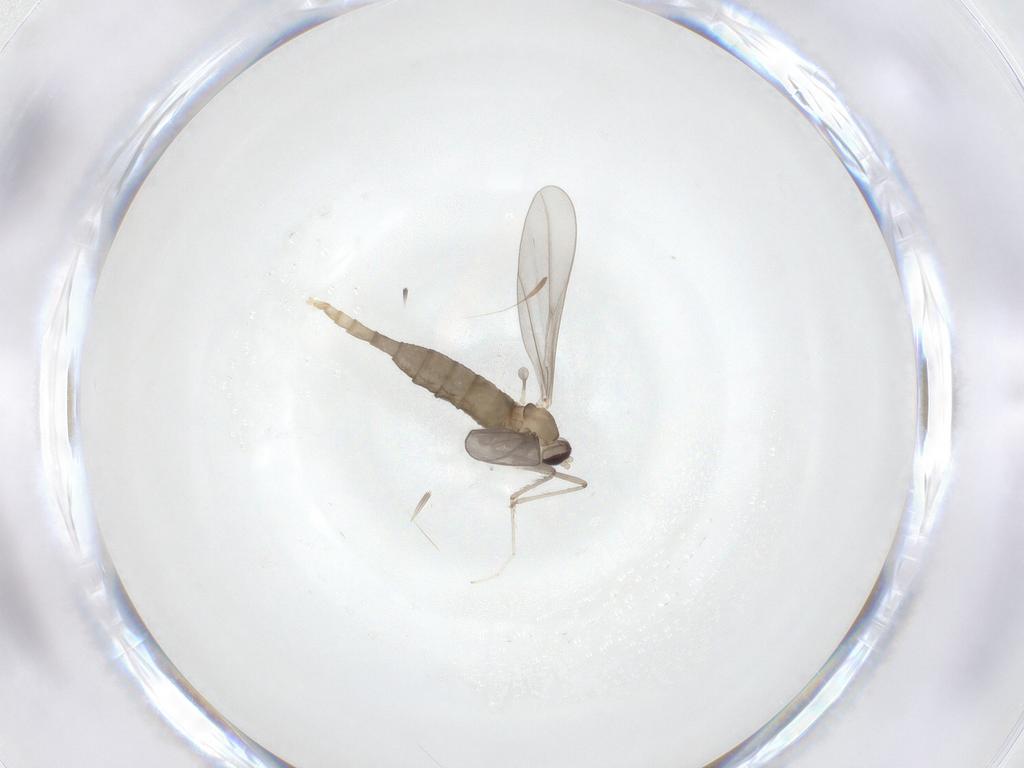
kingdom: Animalia
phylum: Arthropoda
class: Insecta
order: Diptera
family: Cecidomyiidae
